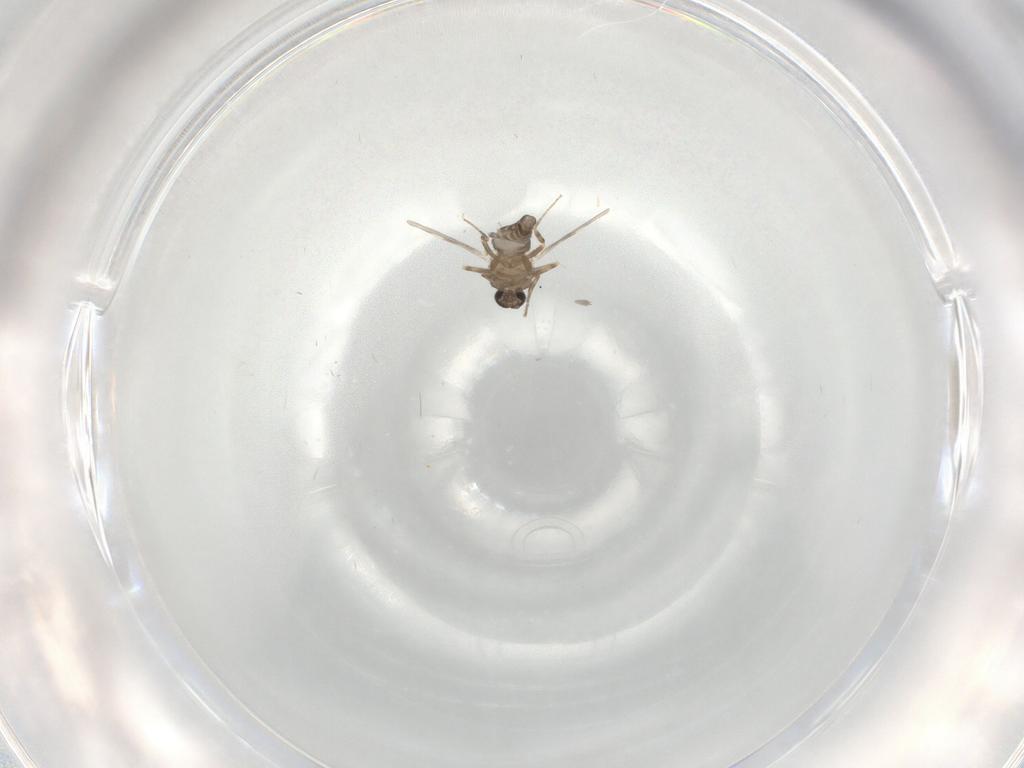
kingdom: Animalia
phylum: Arthropoda
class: Insecta
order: Diptera
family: Ceratopogonidae
